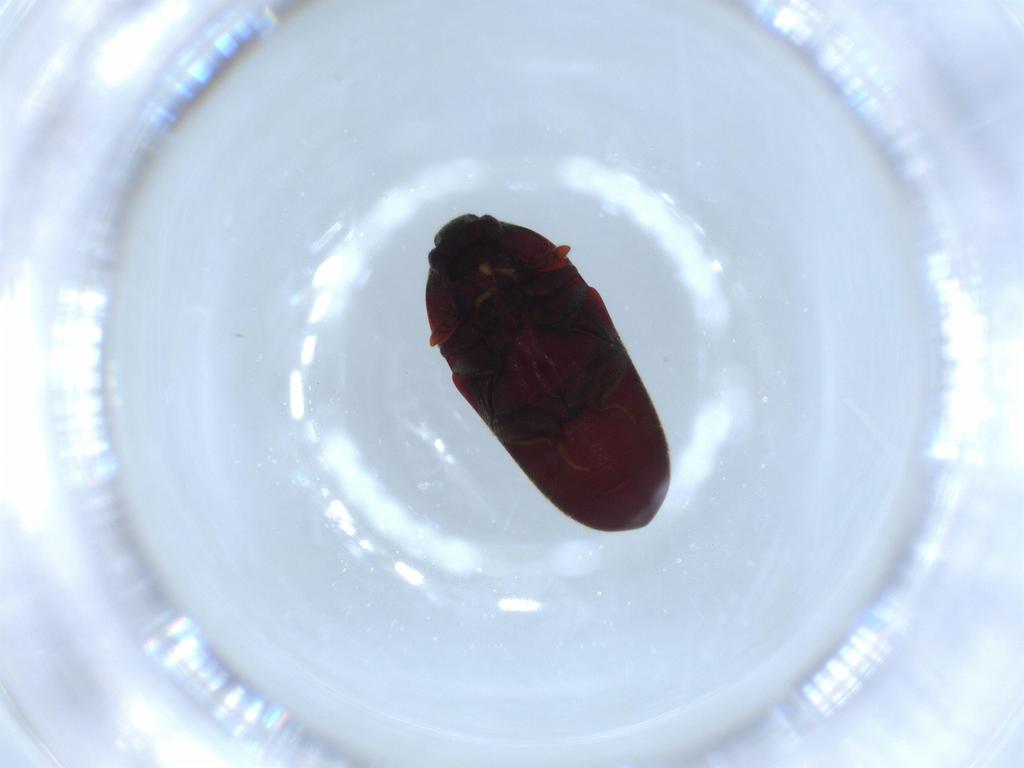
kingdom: Animalia
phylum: Arthropoda
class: Insecta
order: Coleoptera
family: Throscidae
